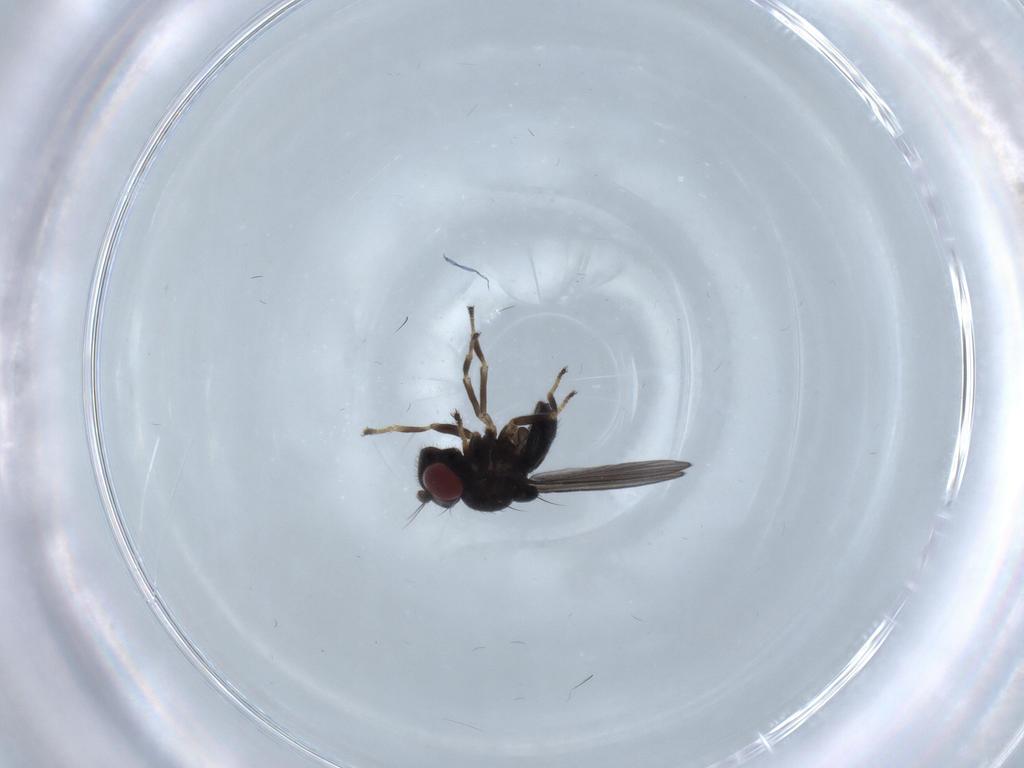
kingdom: Animalia
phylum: Arthropoda
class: Insecta
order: Diptera
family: Ephydridae
